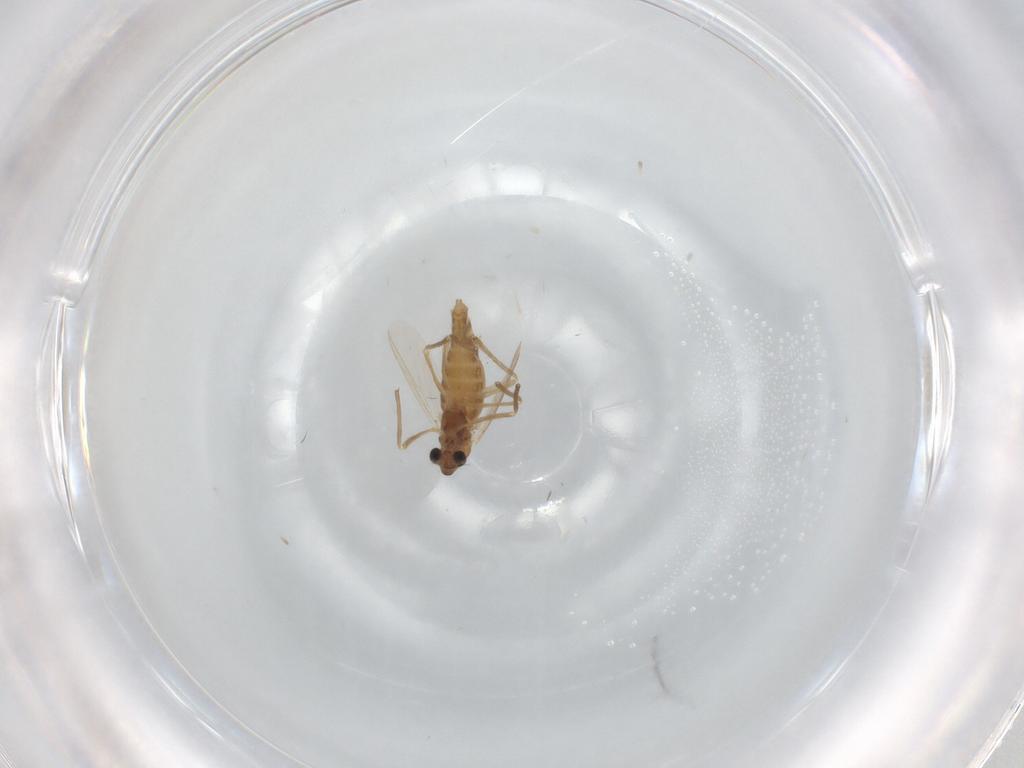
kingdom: Animalia
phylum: Arthropoda
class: Insecta
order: Diptera
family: Chironomidae
